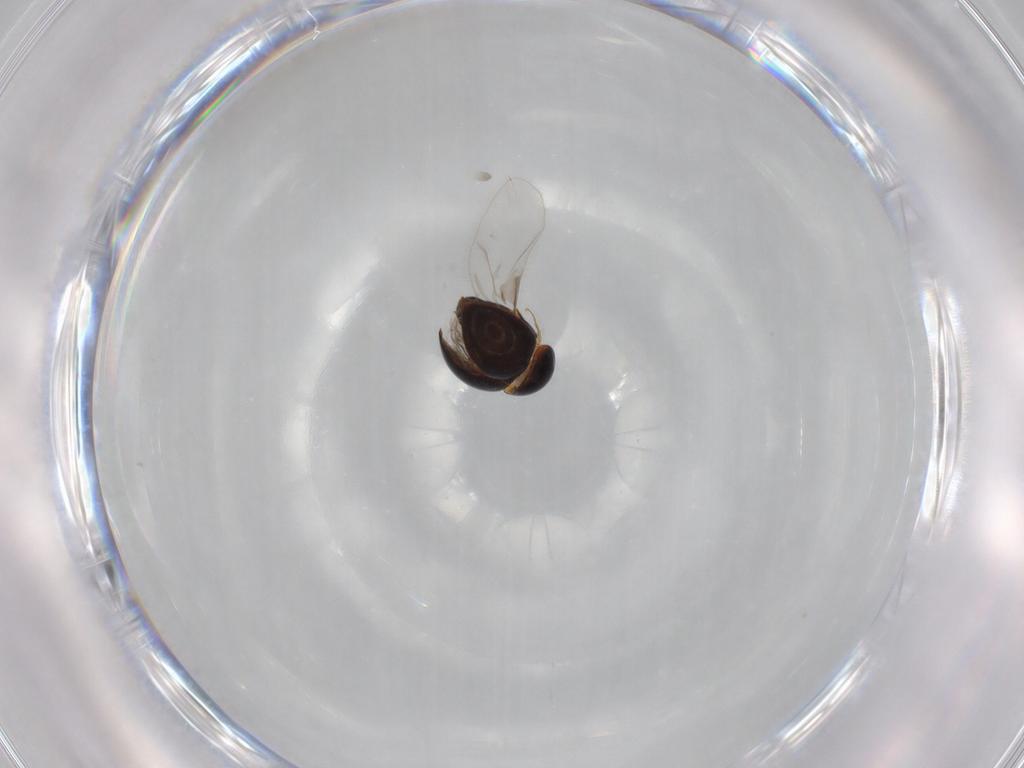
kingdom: Animalia
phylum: Arthropoda
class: Insecta
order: Coleoptera
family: Clambidae
